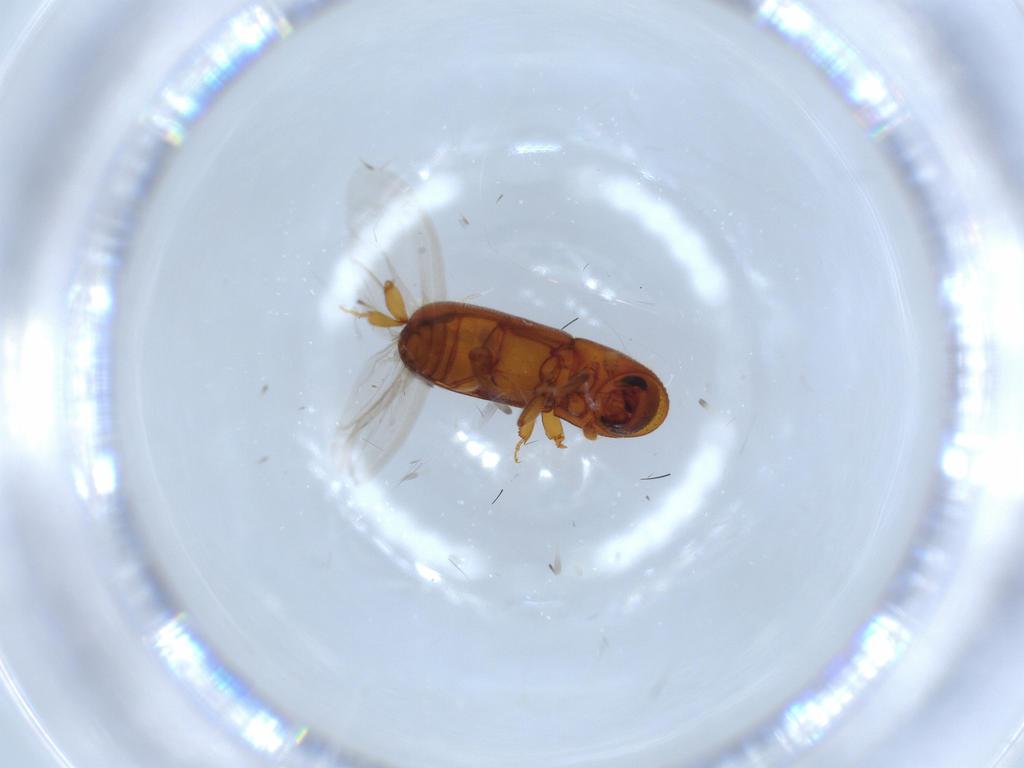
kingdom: Animalia
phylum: Arthropoda
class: Insecta
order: Coleoptera
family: Curculionidae
